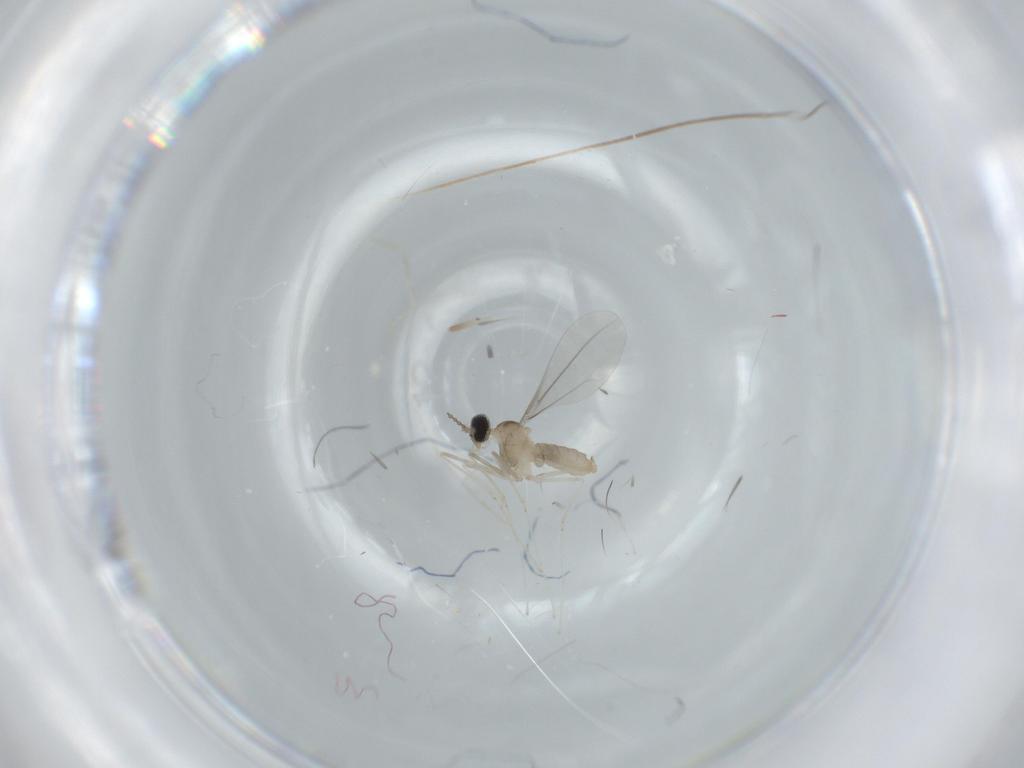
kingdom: Animalia
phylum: Arthropoda
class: Insecta
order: Diptera
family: Cecidomyiidae
